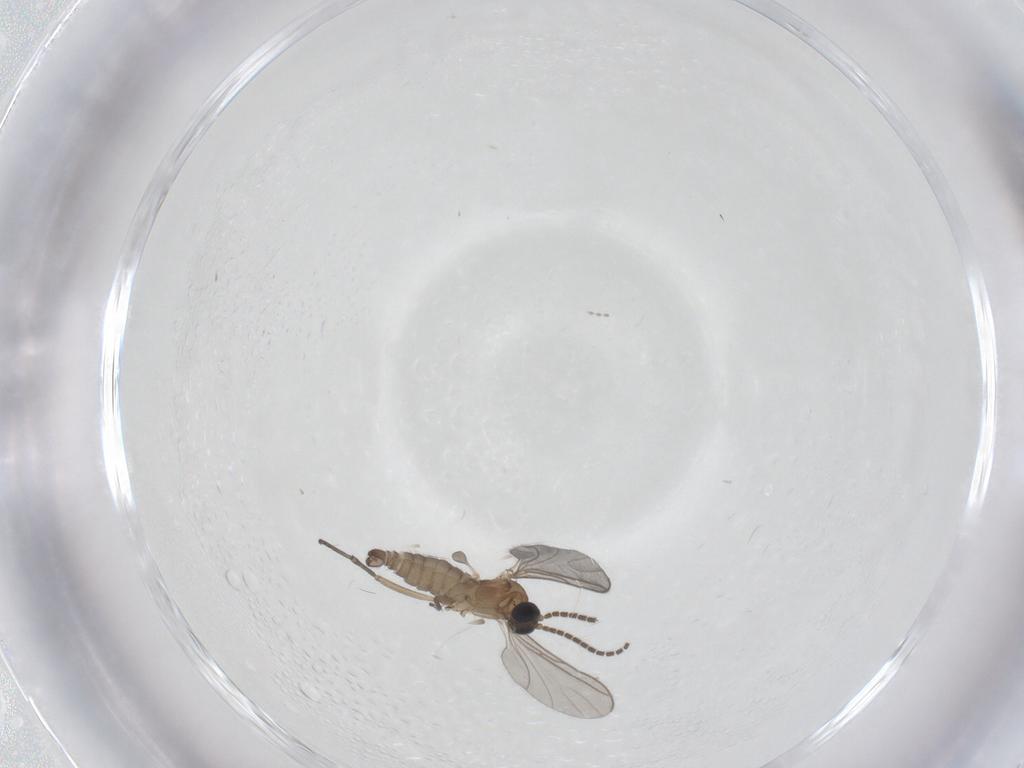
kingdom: Animalia
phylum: Arthropoda
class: Insecta
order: Diptera
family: Sciaridae
